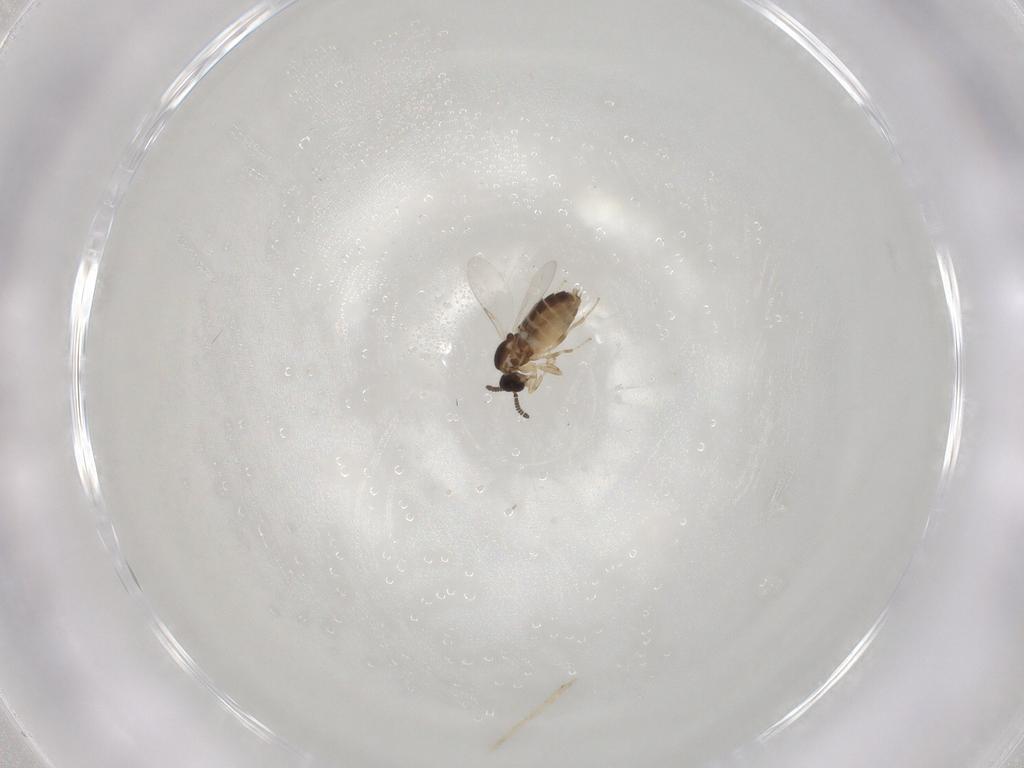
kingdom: Animalia
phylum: Arthropoda
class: Insecta
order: Diptera
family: Scatopsidae
